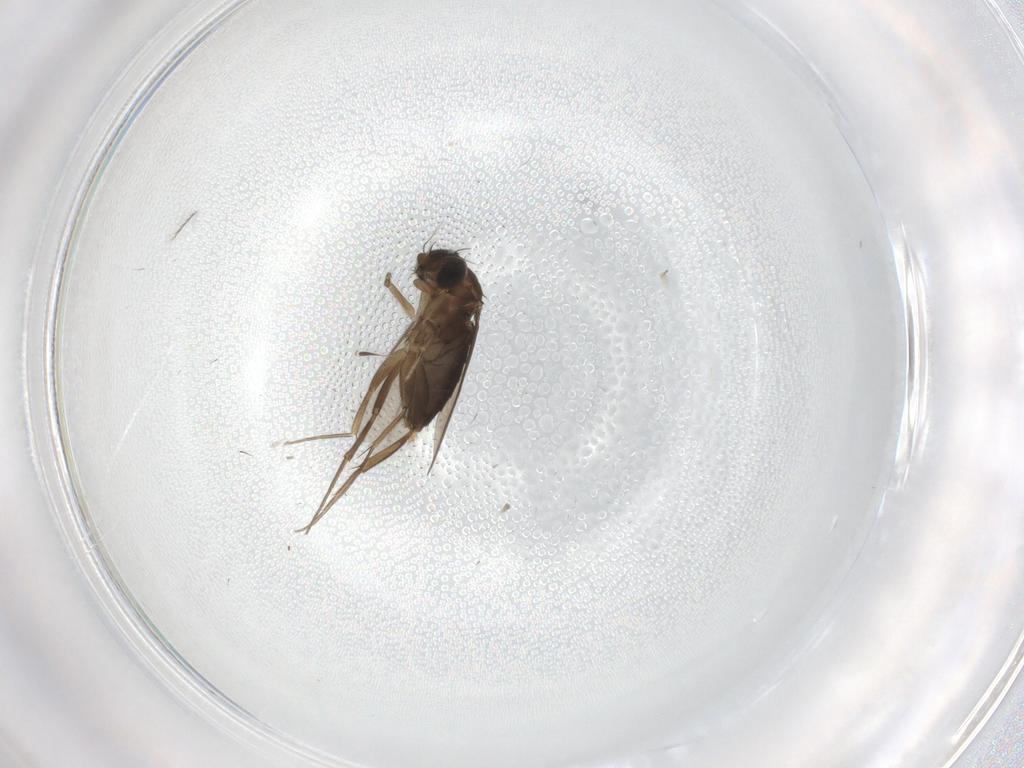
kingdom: Animalia
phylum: Arthropoda
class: Insecta
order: Diptera
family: Phoridae
